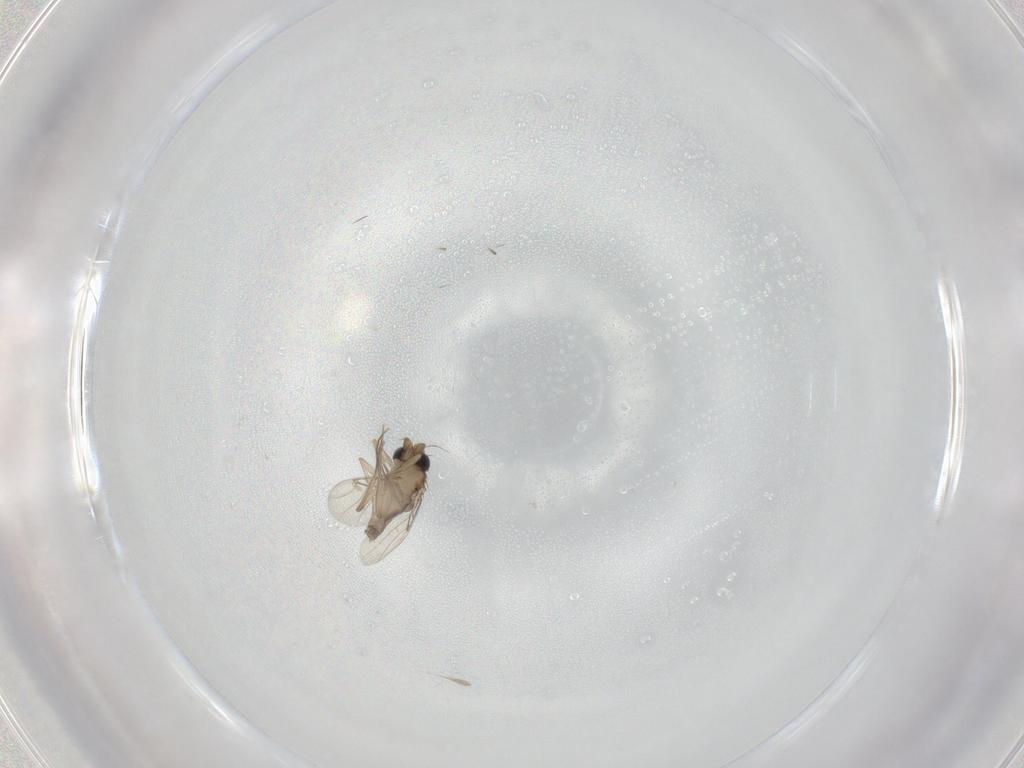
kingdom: Animalia
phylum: Arthropoda
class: Insecta
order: Diptera
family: Phoridae
